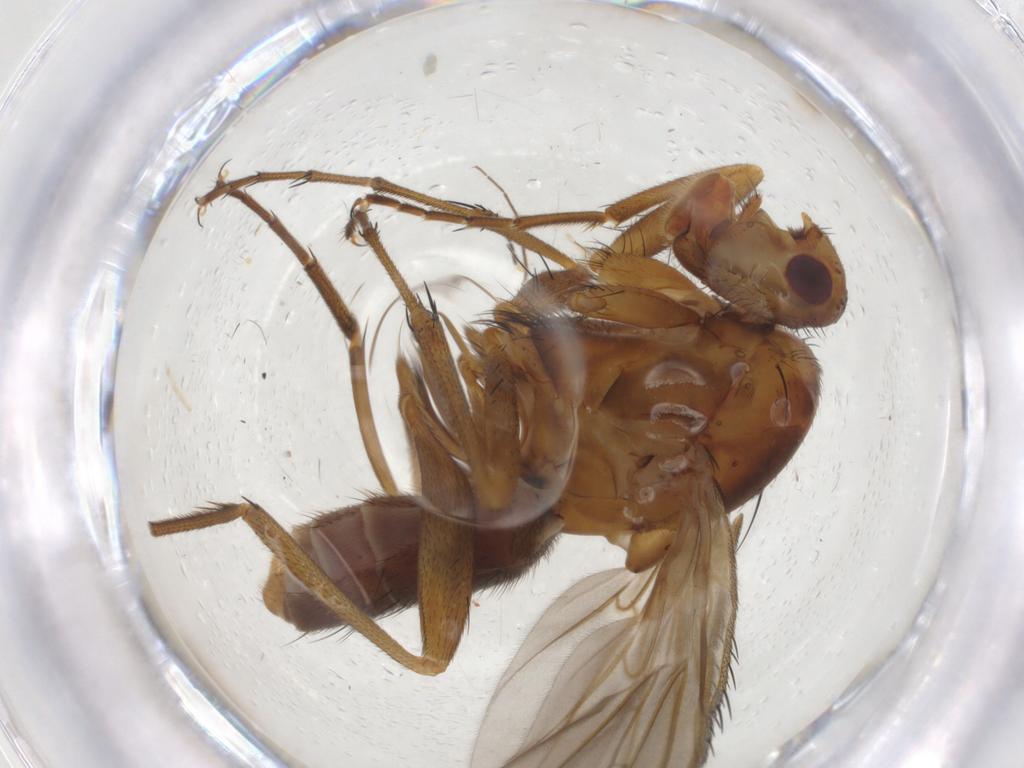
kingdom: Animalia
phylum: Arthropoda
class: Insecta
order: Diptera
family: Heleomyzidae
